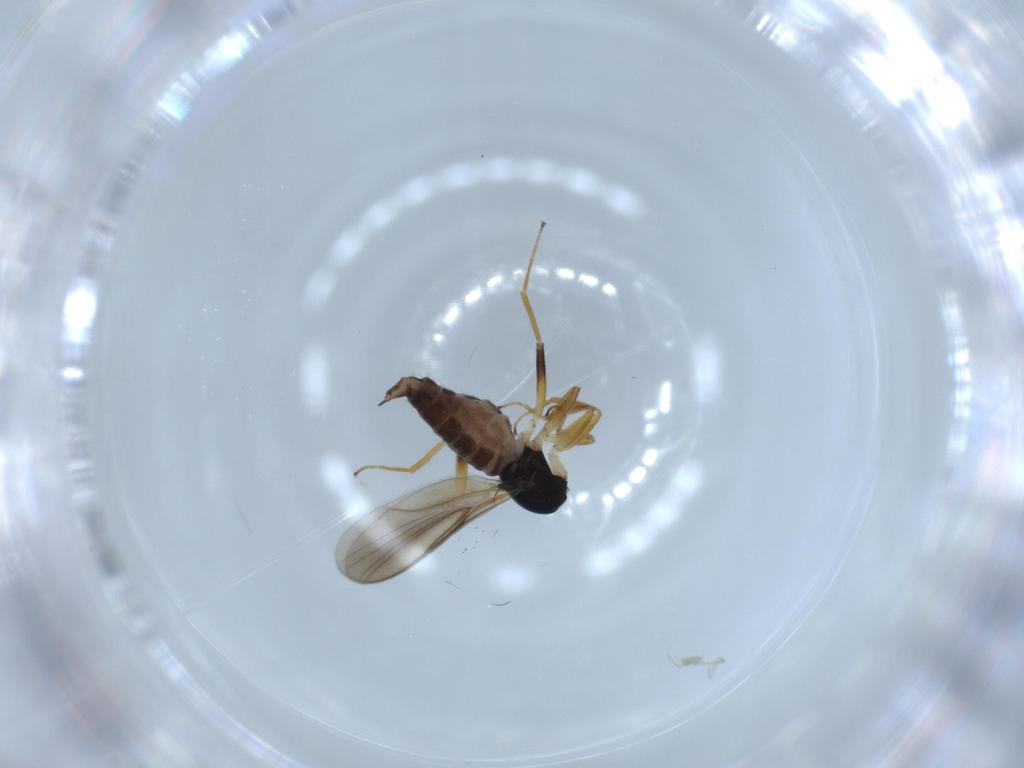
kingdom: Animalia
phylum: Arthropoda
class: Insecta
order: Diptera
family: Hybotidae
